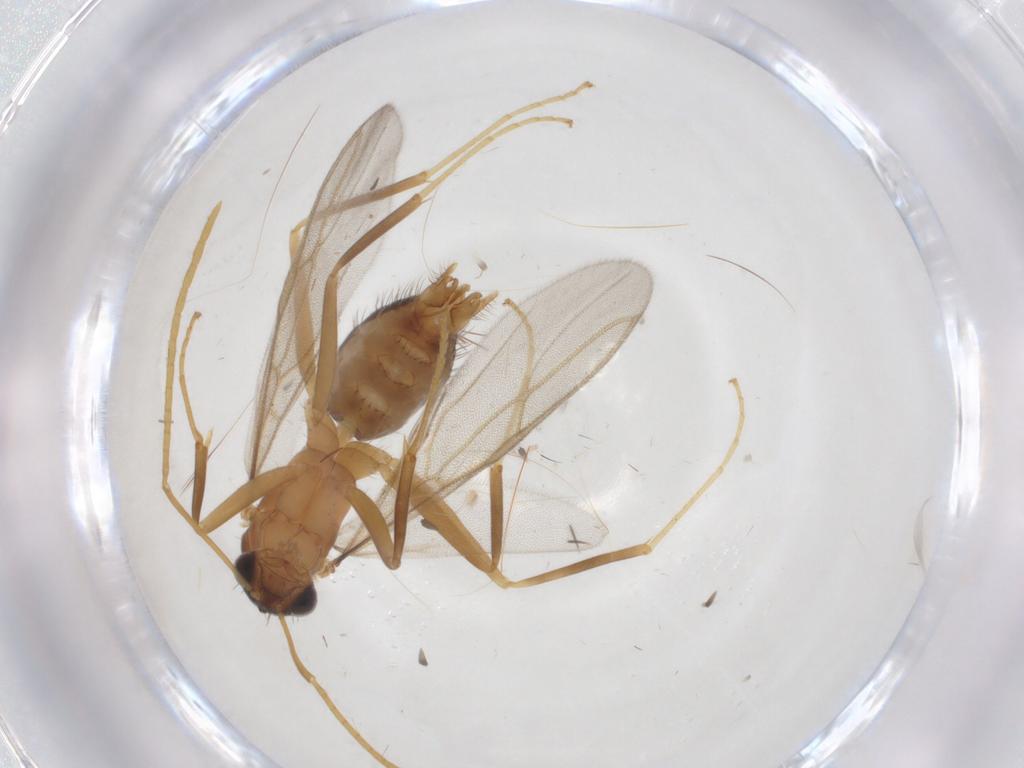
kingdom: Animalia
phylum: Arthropoda
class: Insecta
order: Hymenoptera
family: Formicidae
